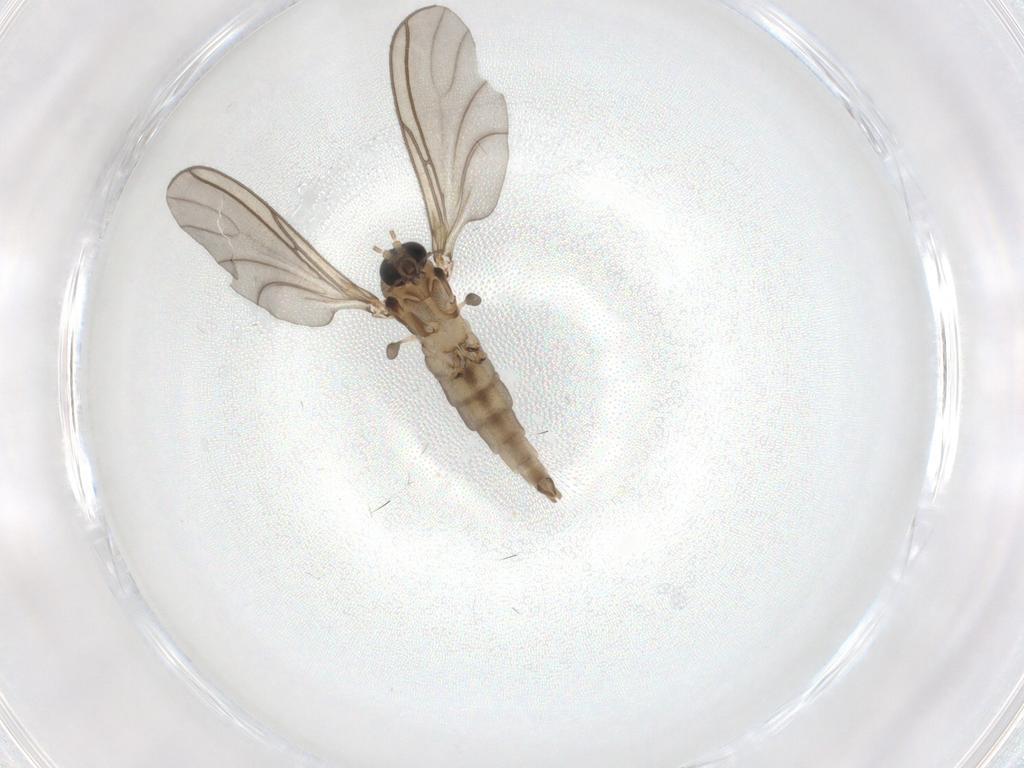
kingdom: Animalia
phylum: Arthropoda
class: Insecta
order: Diptera
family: Sciaridae
